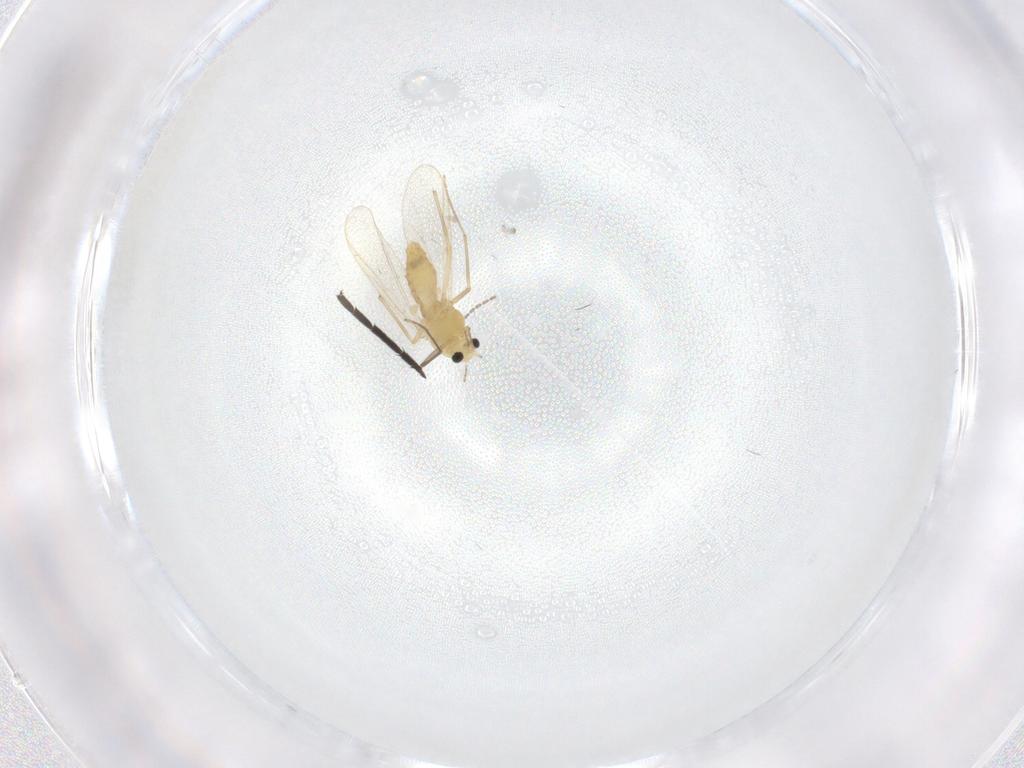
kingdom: Animalia
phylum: Arthropoda
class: Insecta
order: Diptera
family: Chironomidae
